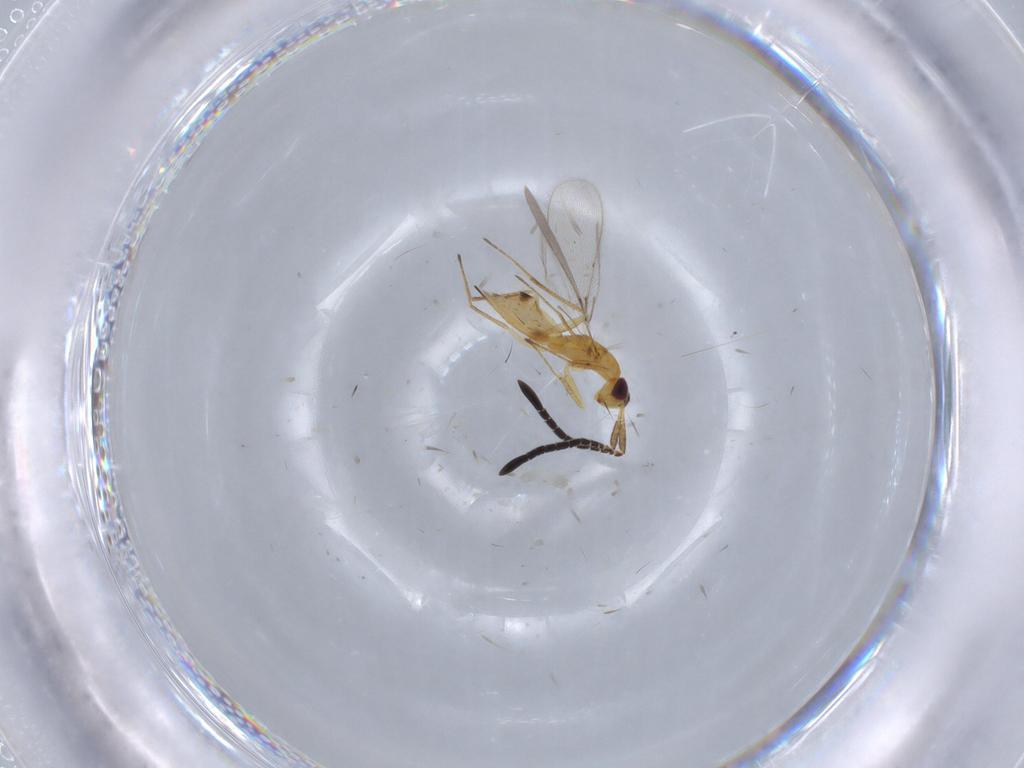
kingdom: Animalia
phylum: Arthropoda
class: Insecta
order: Hymenoptera
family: Mymaridae
